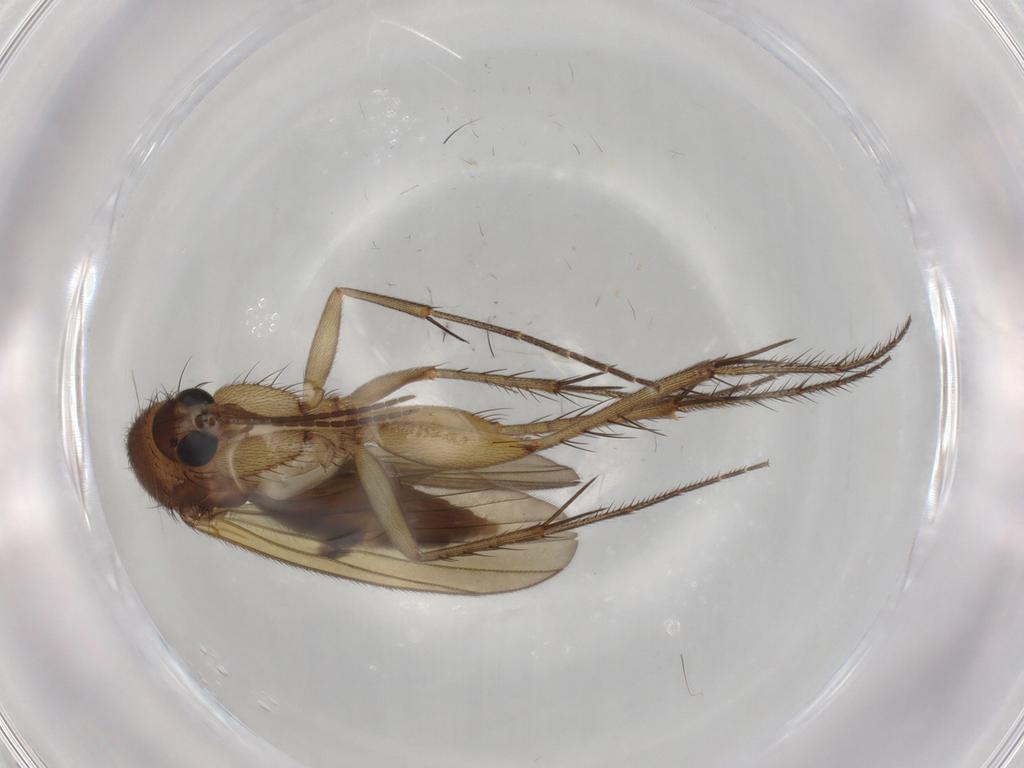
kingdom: Animalia
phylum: Arthropoda
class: Insecta
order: Diptera
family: Mycetophilidae
